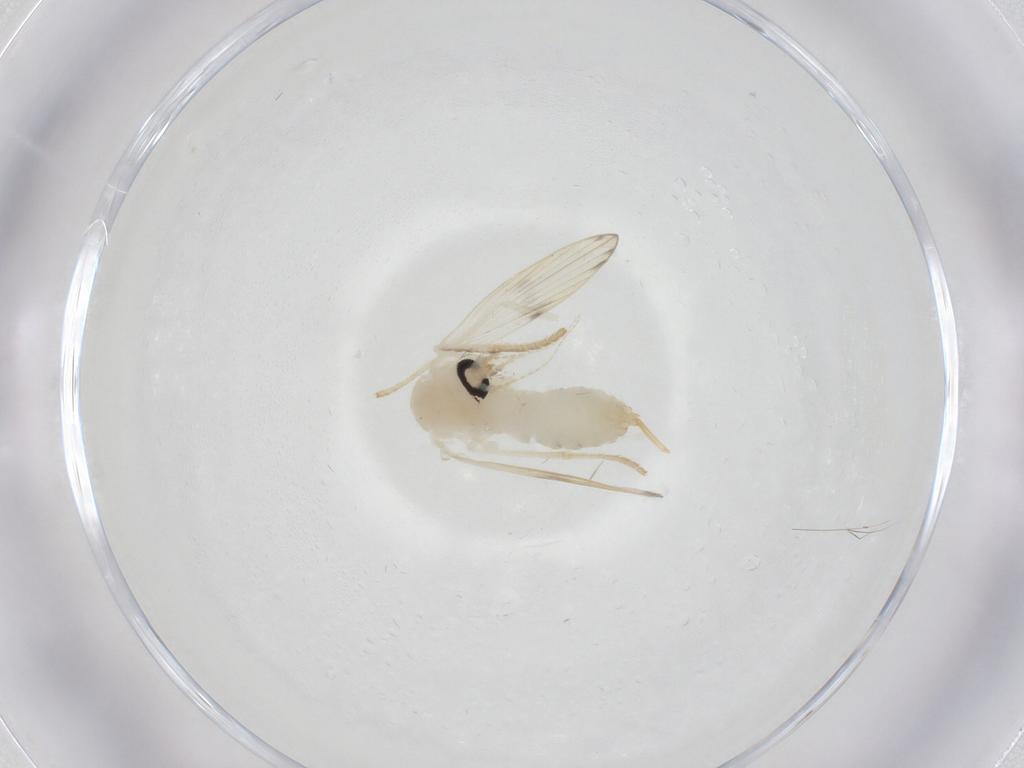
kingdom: Animalia
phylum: Arthropoda
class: Insecta
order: Diptera
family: Psychodidae
